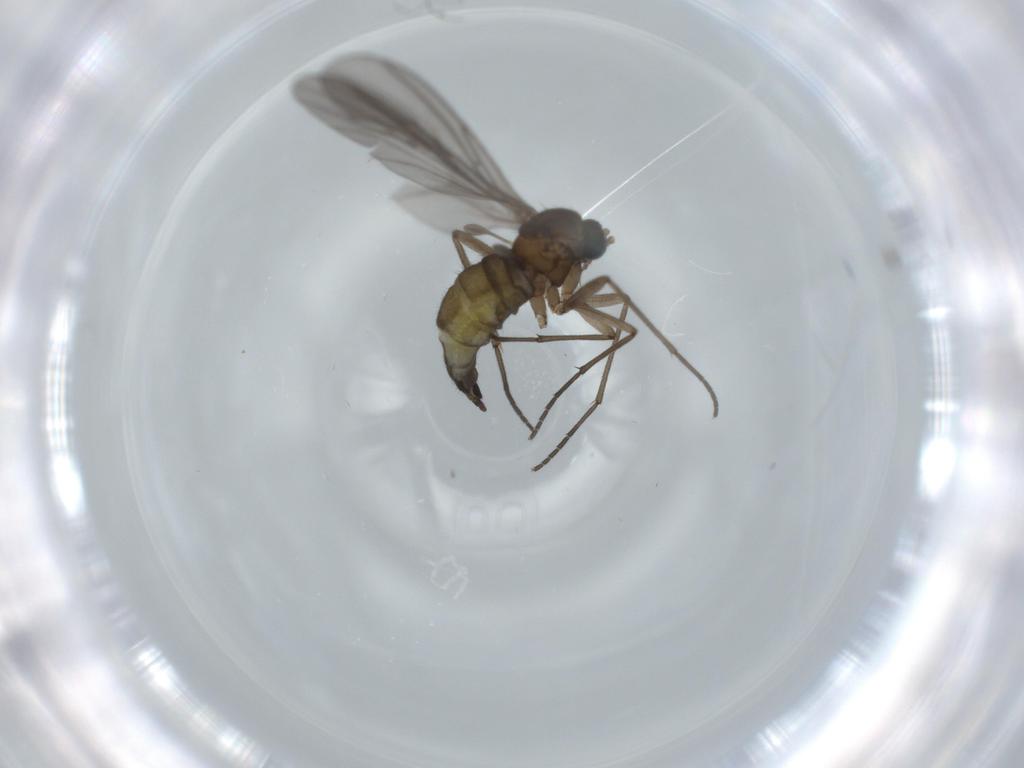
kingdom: Animalia
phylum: Arthropoda
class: Insecta
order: Diptera
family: Sciaridae
